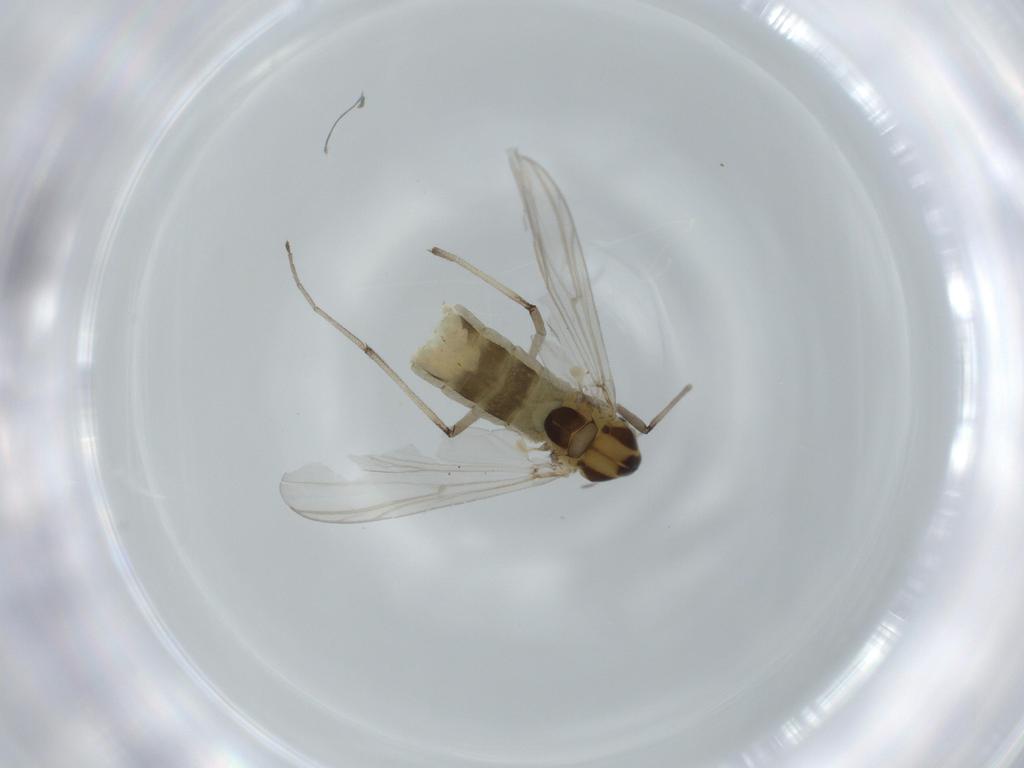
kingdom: Animalia
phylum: Arthropoda
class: Insecta
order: Diptera
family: Chironomidae
